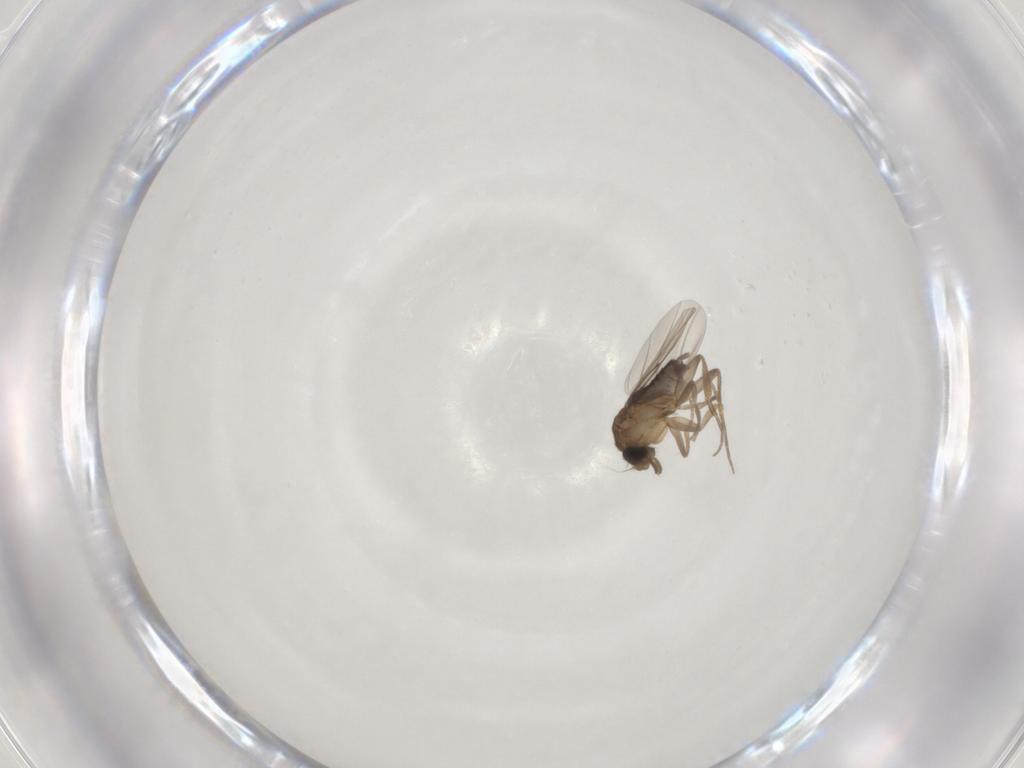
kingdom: Animalia
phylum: Arthropoda
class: Insecta
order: Diptera
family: Phoridae
